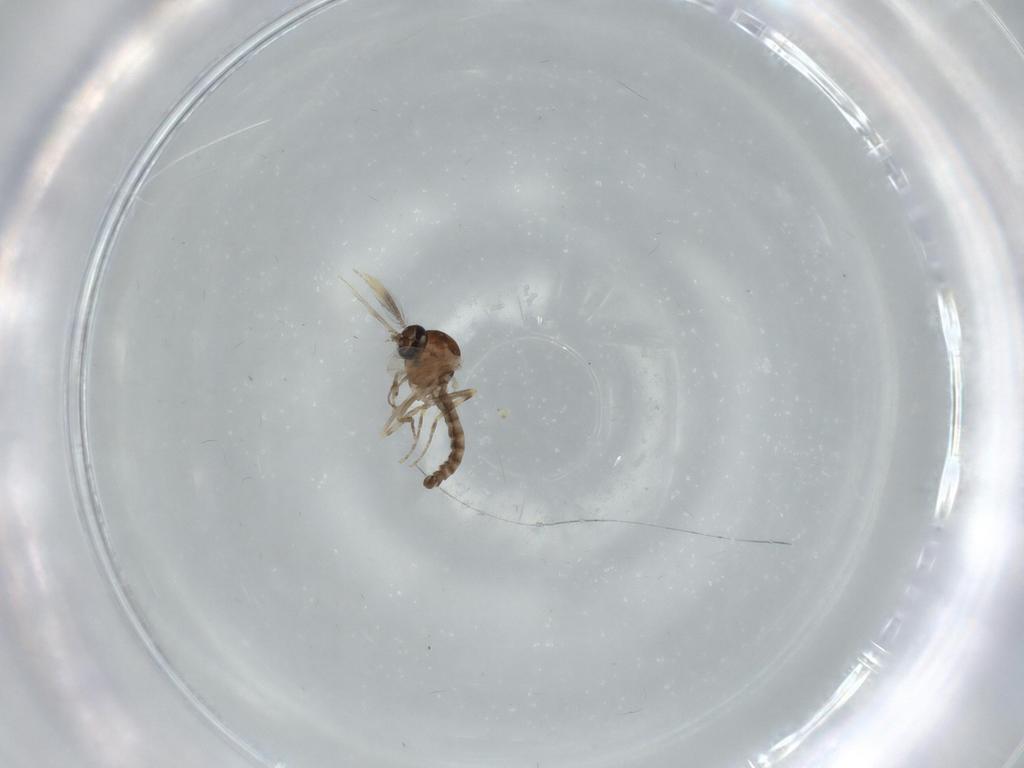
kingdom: Animalia
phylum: Arthropoda
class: Insecta
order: Diptera
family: Ceratopogonidae
